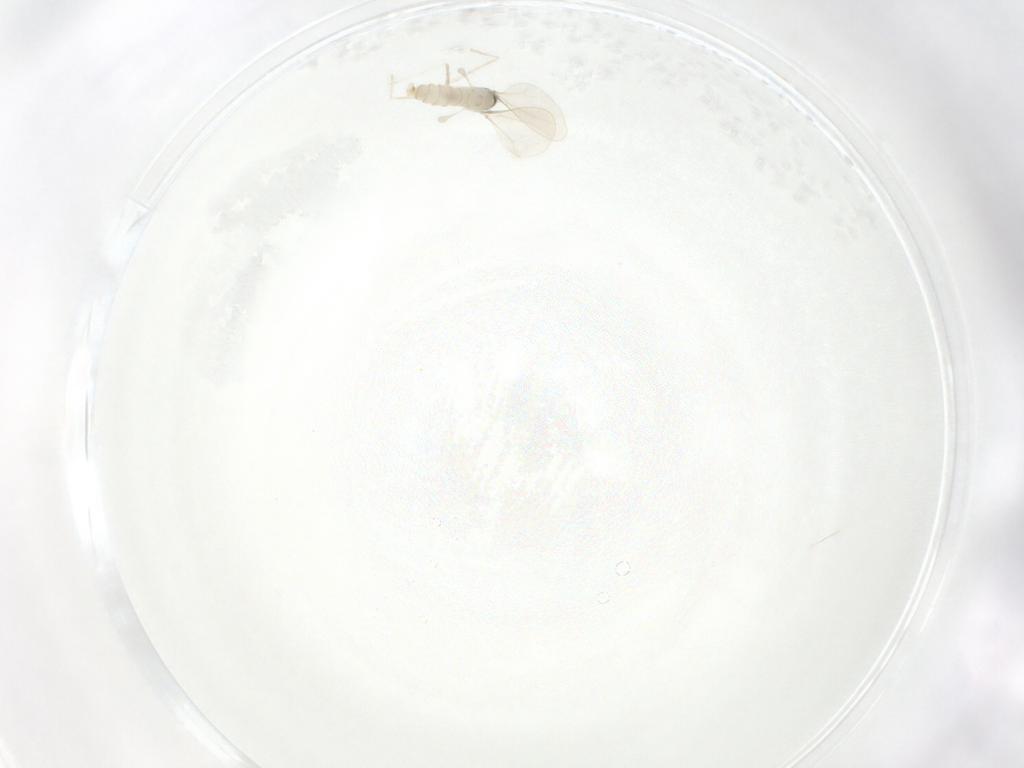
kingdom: Animalia
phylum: Arthropoda
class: Insecta
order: Diptera
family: Cecidomyiidae
